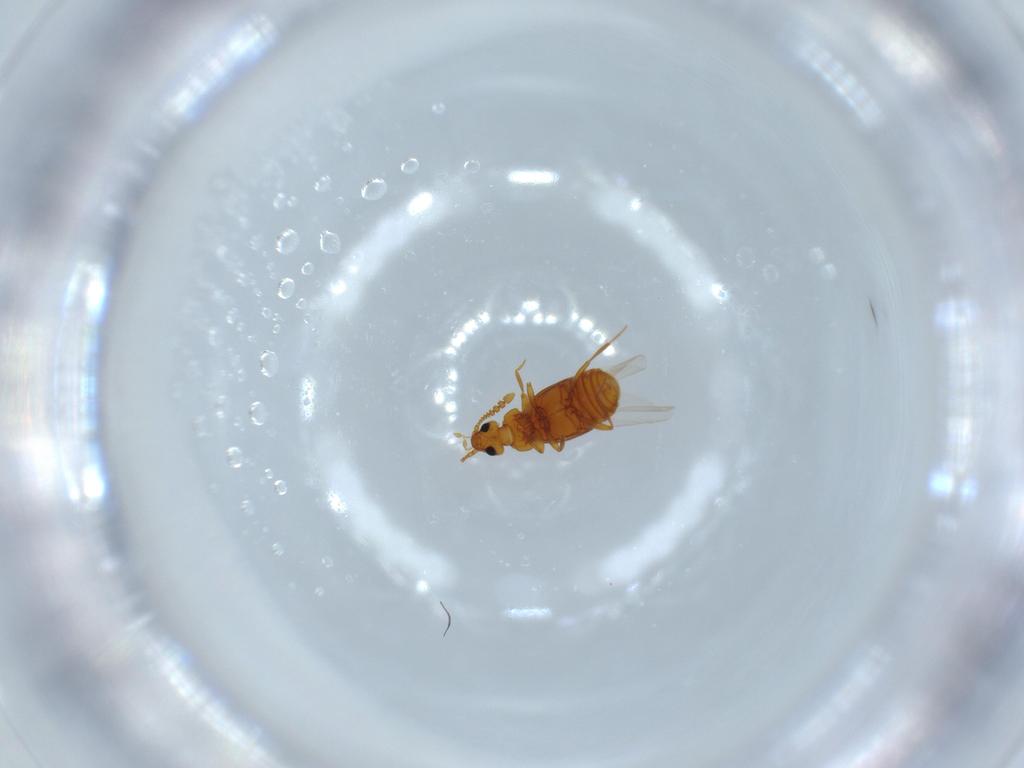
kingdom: Animalia
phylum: Arthropoda
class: Insecta
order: Coleoptera
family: Staphylinidae
